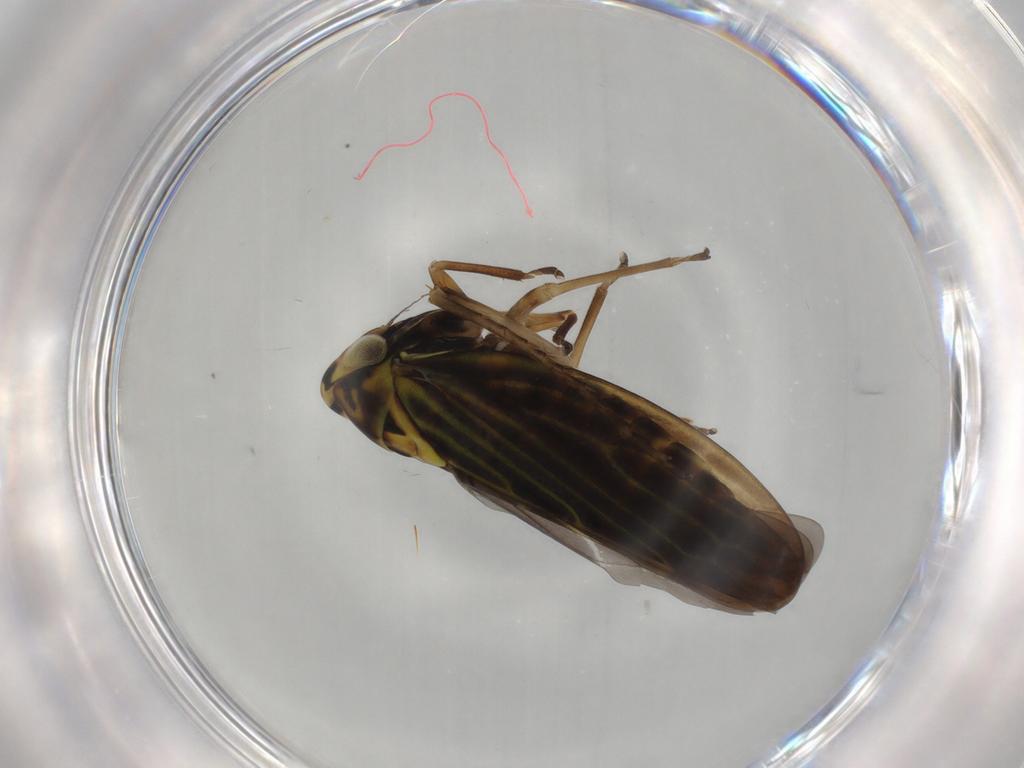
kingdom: Animalia
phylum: Arthropoda
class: Insecta
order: Hemiptera
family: Cicadellidae
